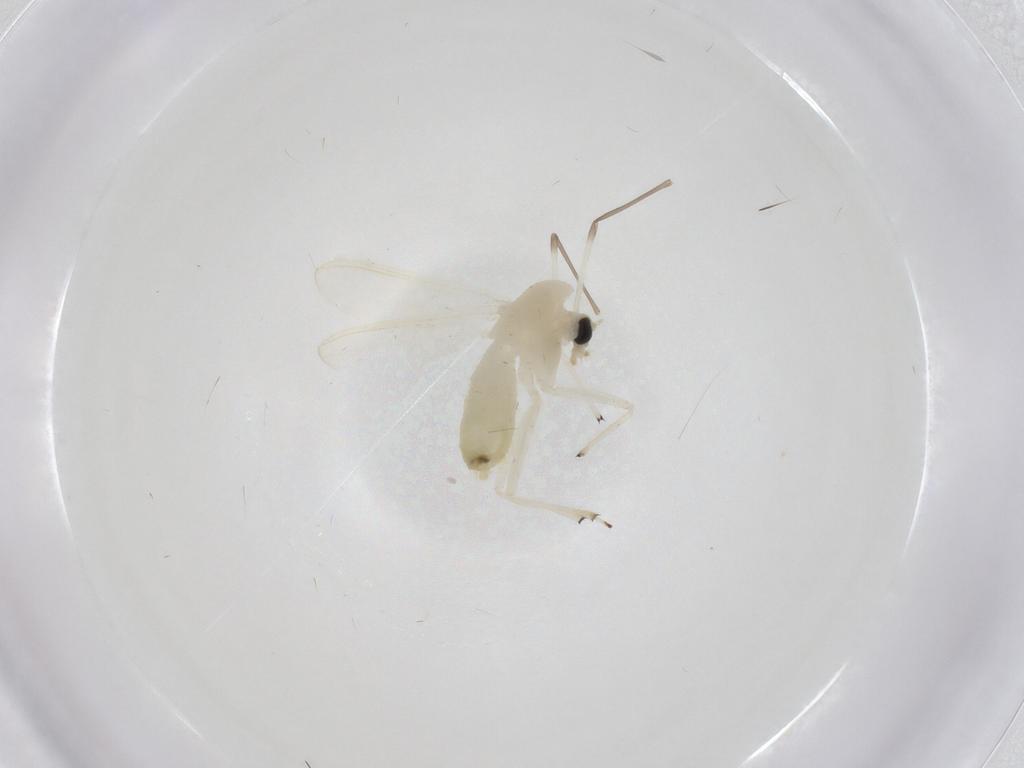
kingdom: Animalia
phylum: Arthropoda
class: Insecta
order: Diptera
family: Chironomidae
